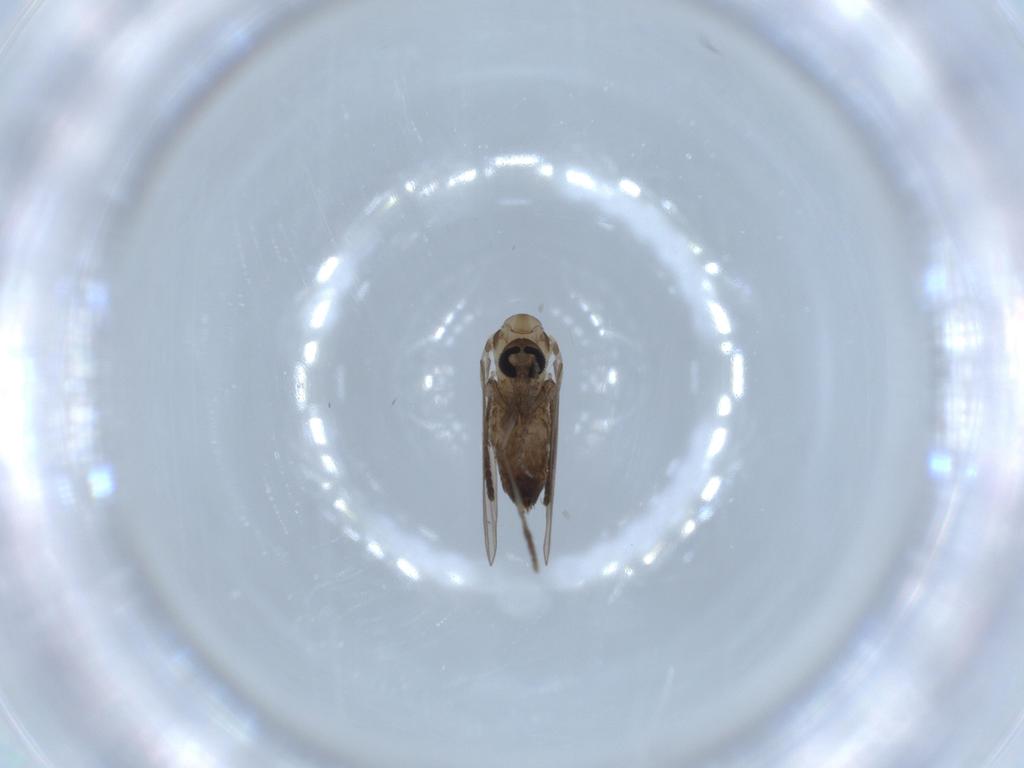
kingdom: Animalia
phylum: Arthropoda
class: Insecta
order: Diptera
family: Psychodidae
